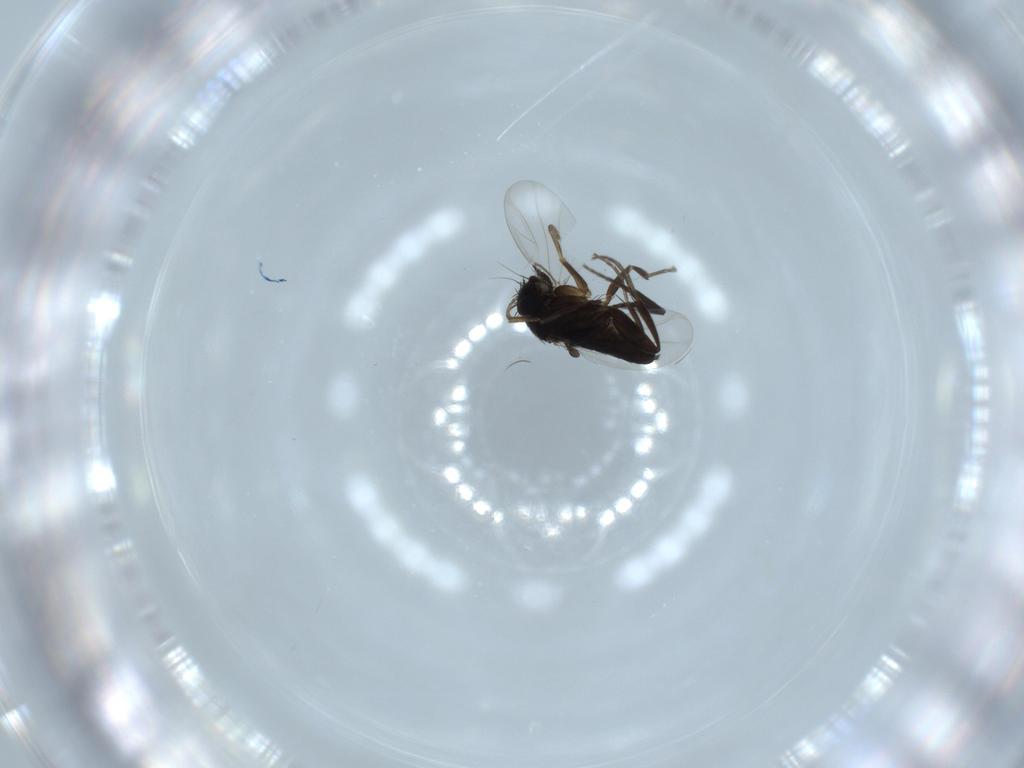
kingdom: Animalia
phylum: Arthropoda
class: Insecta
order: Diptera
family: Phoridae
